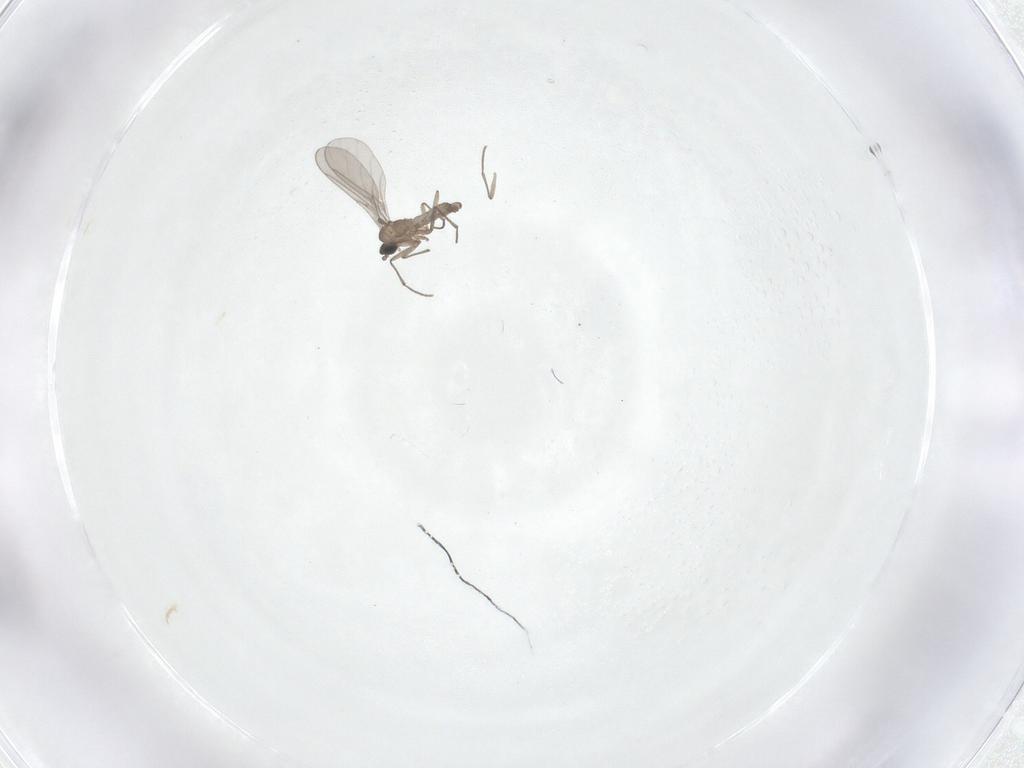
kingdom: Animalia
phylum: Arthropoda
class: Insecta
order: Diptera
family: Sciaridae
